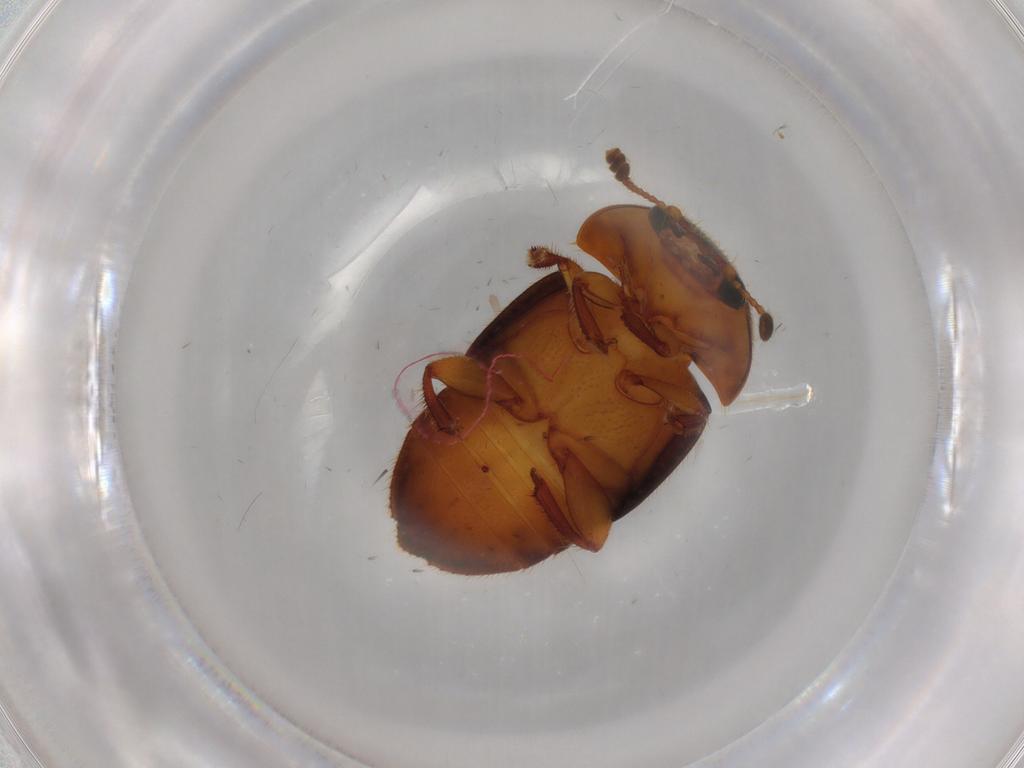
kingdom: Animalia
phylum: Arthropoda
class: Insecta
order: Coleoptera
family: Nitidulidae
